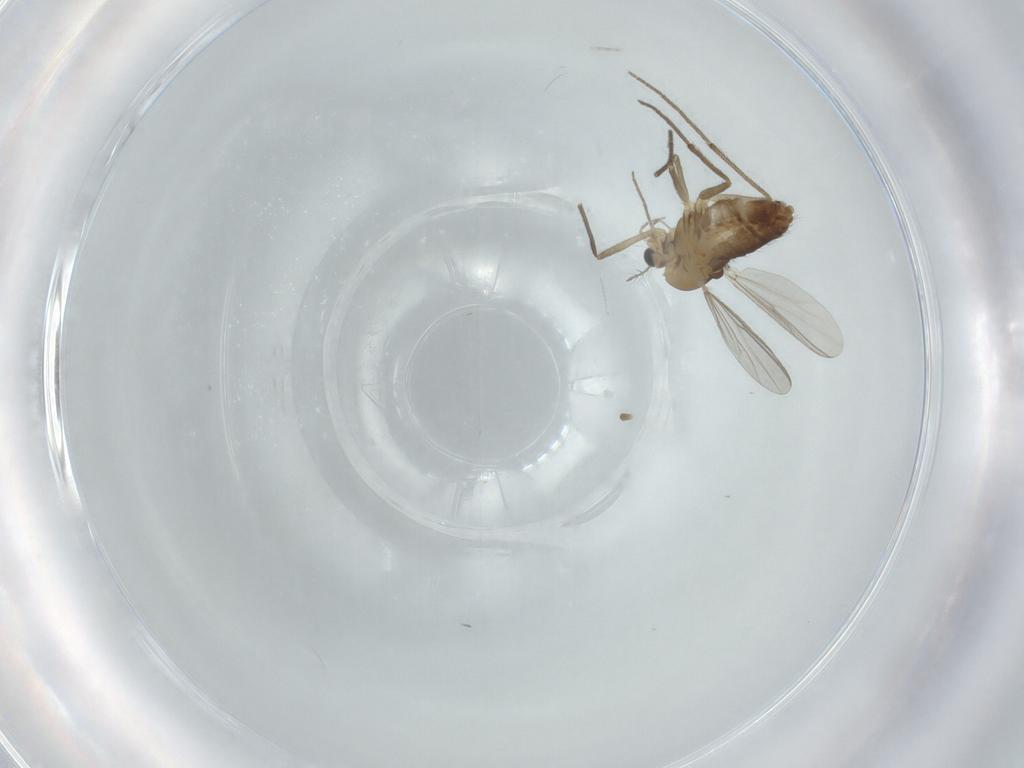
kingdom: Animalia
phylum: Arthropoda
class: Insecta
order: Diptera
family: Chironomidae
